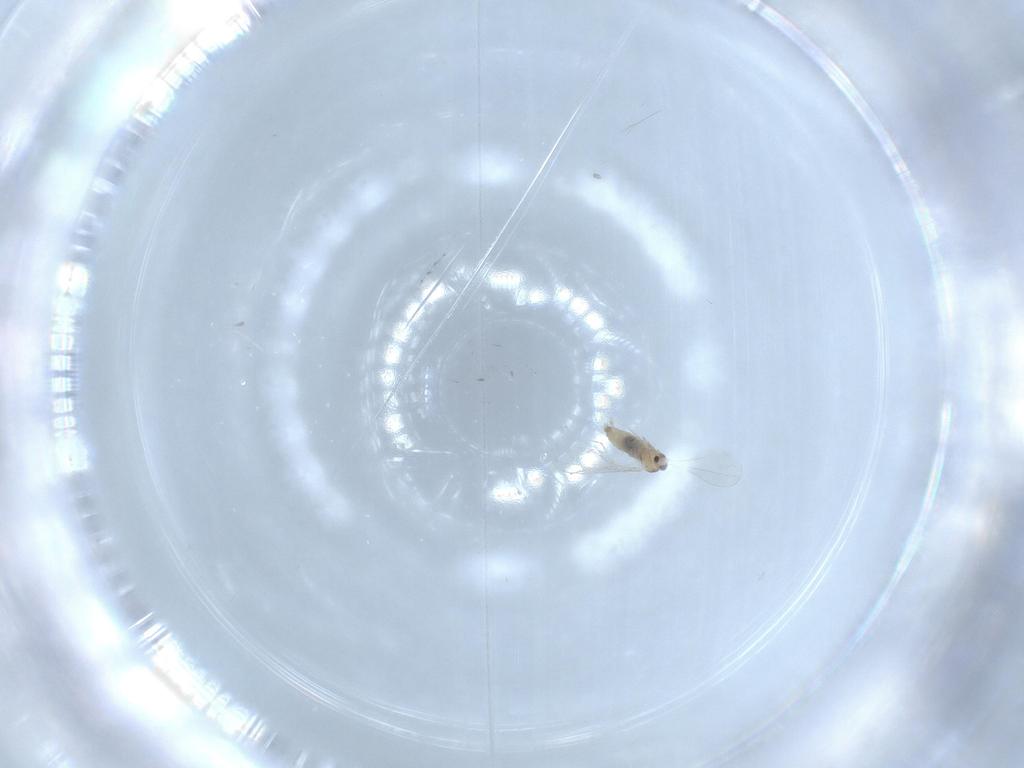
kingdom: Animalia
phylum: Arthropoda
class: Insecta
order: Diptera
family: Cecidomyiidae
